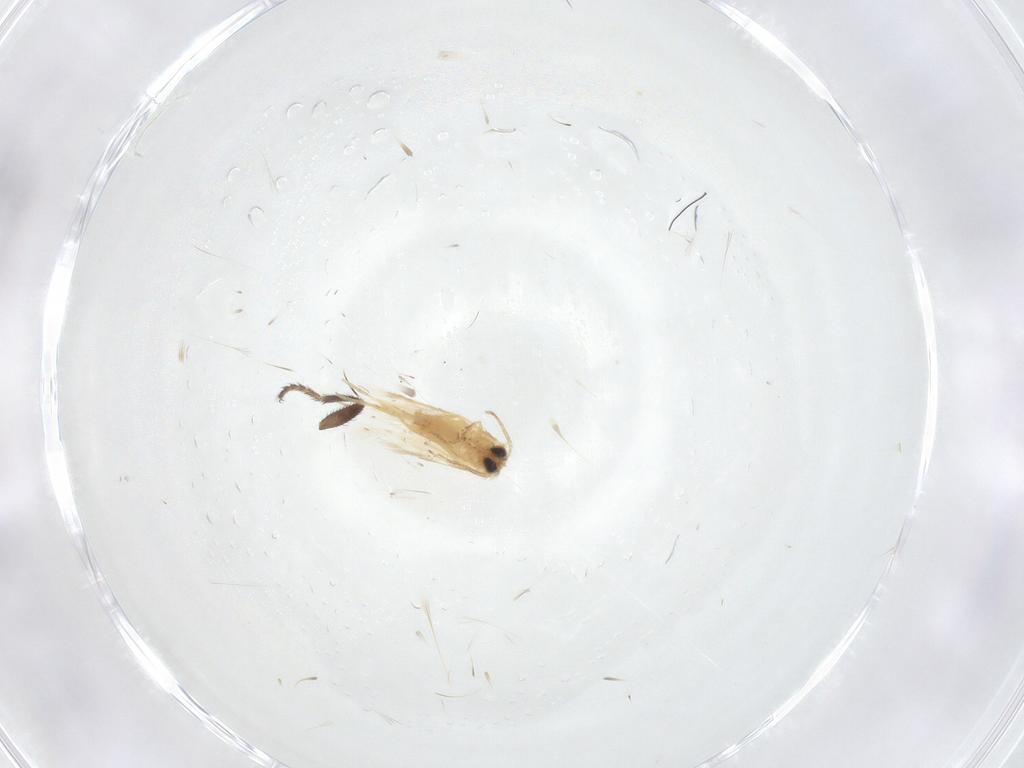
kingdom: Animalia
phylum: Arthropoda
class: Insecta
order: Lepidoptera
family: Crambidae
